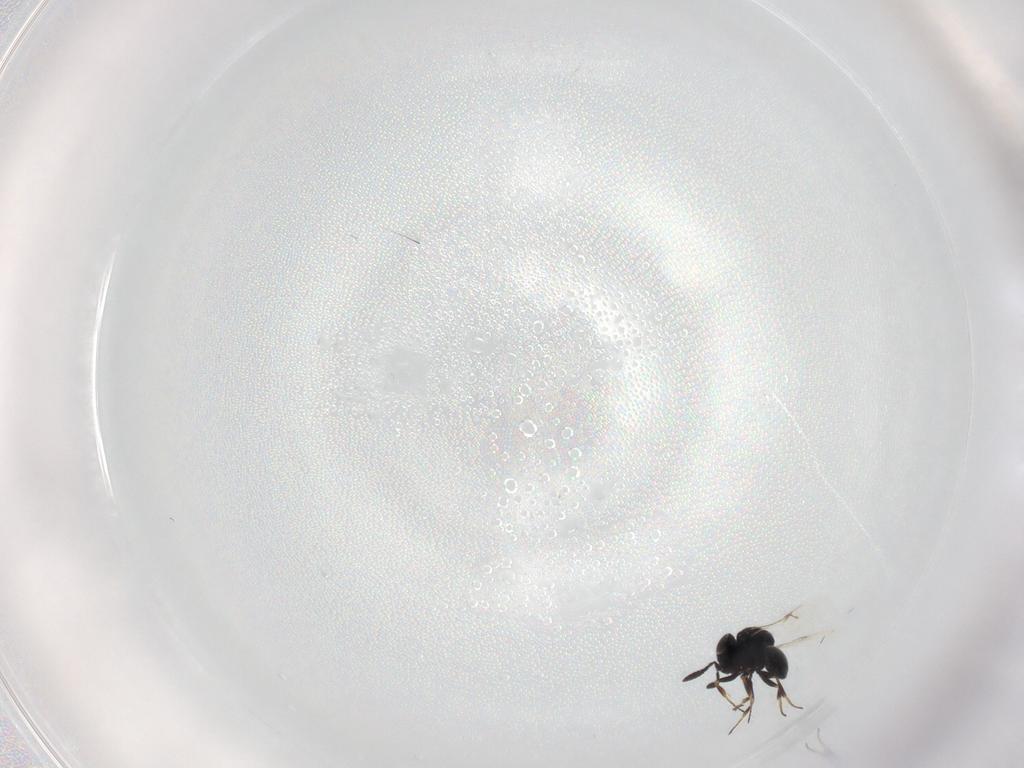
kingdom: Animalia
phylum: Arthropoda
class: Insecta
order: Hymenoptera
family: Scelionidae
